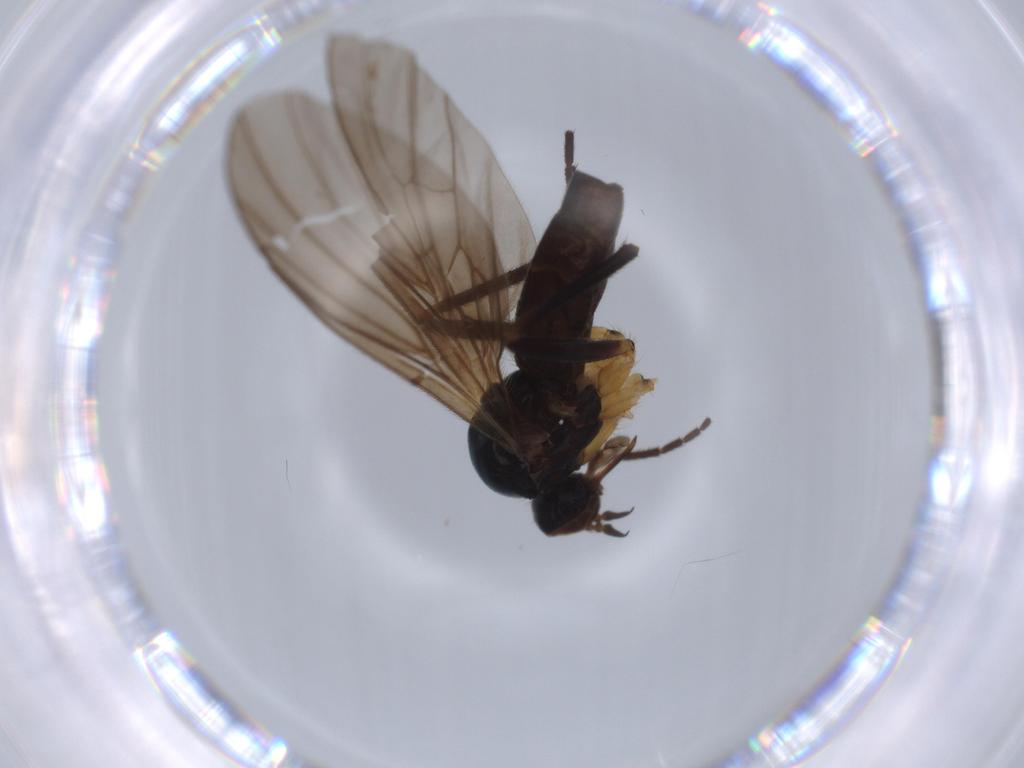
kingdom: Animalia
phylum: Arthropoda
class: Insecta
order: Diptera
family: Empididae
